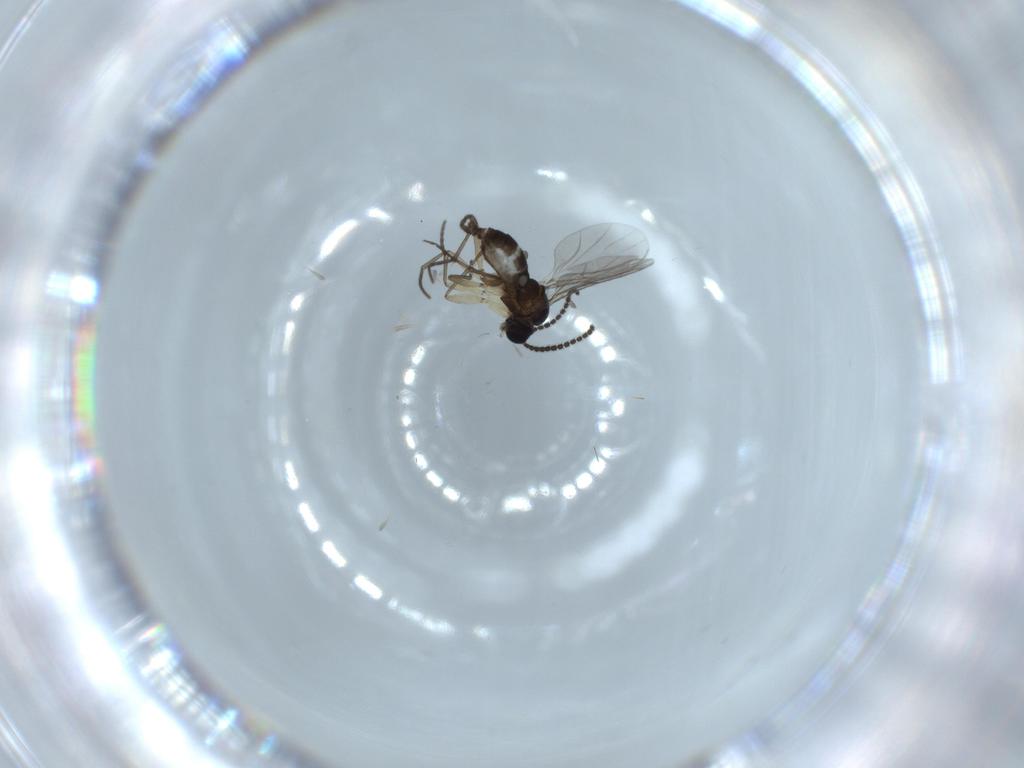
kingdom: Animalia
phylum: Arthropoda
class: Insecta
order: Diptera
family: Sciaridae
